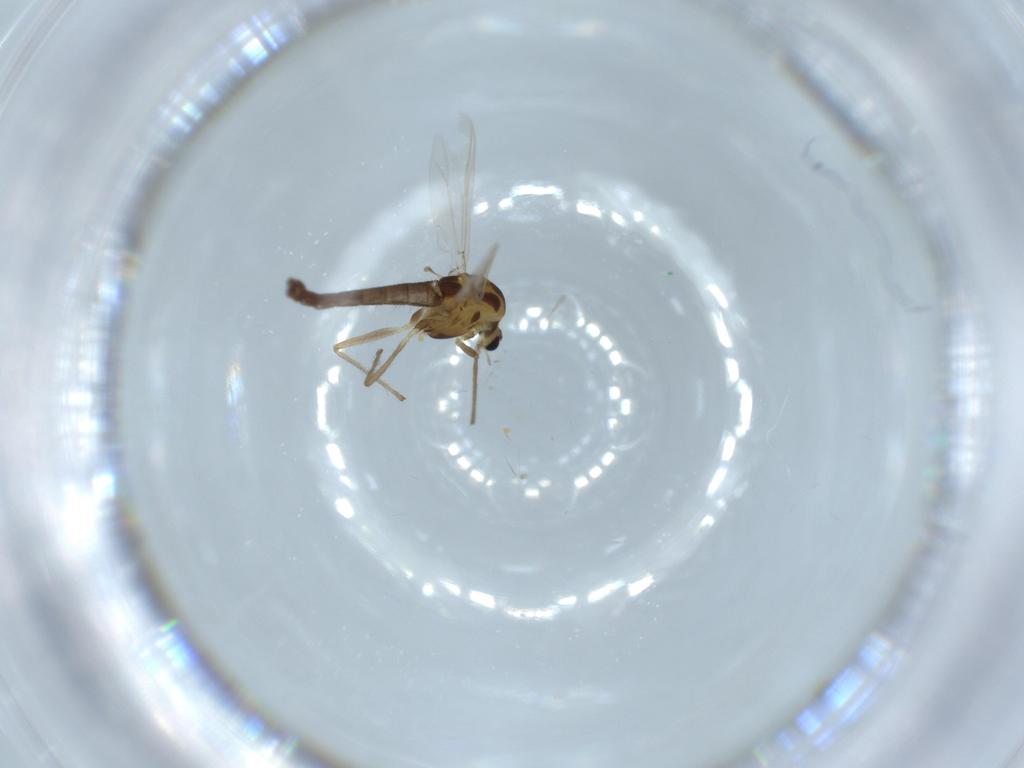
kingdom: Animalia
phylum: Arthropoda
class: Insecta
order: Diptera
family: Chironomidae
